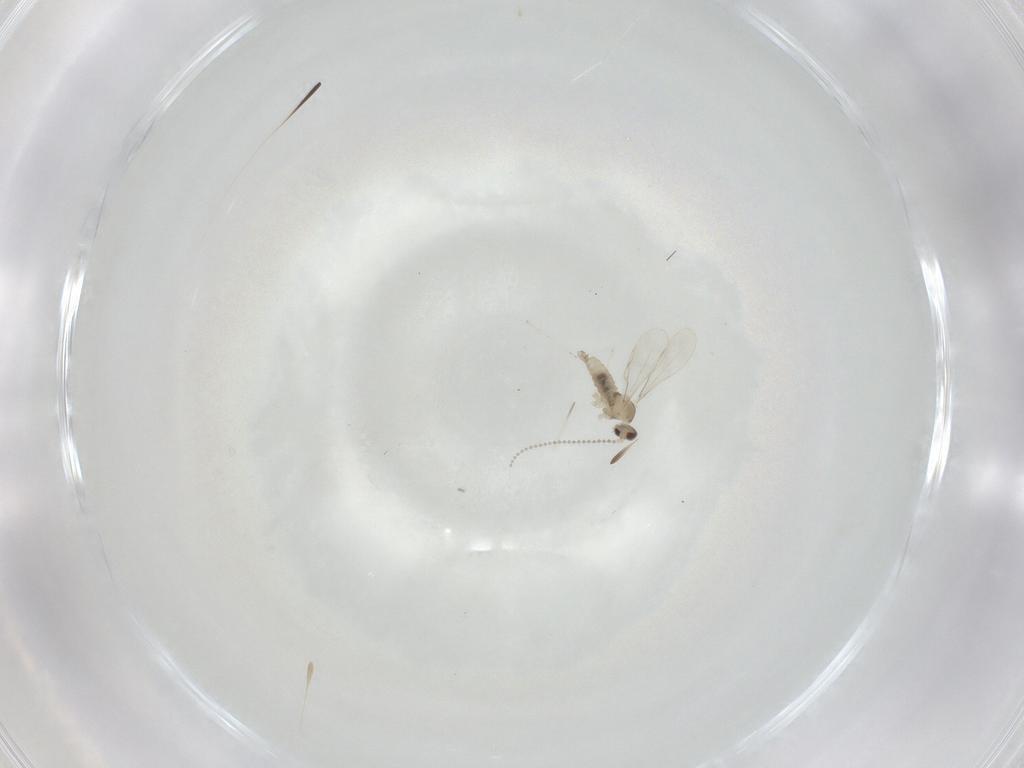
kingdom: Animalia
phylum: Arthropoda
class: Insecta
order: Diptera
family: Cecidomyiidae
